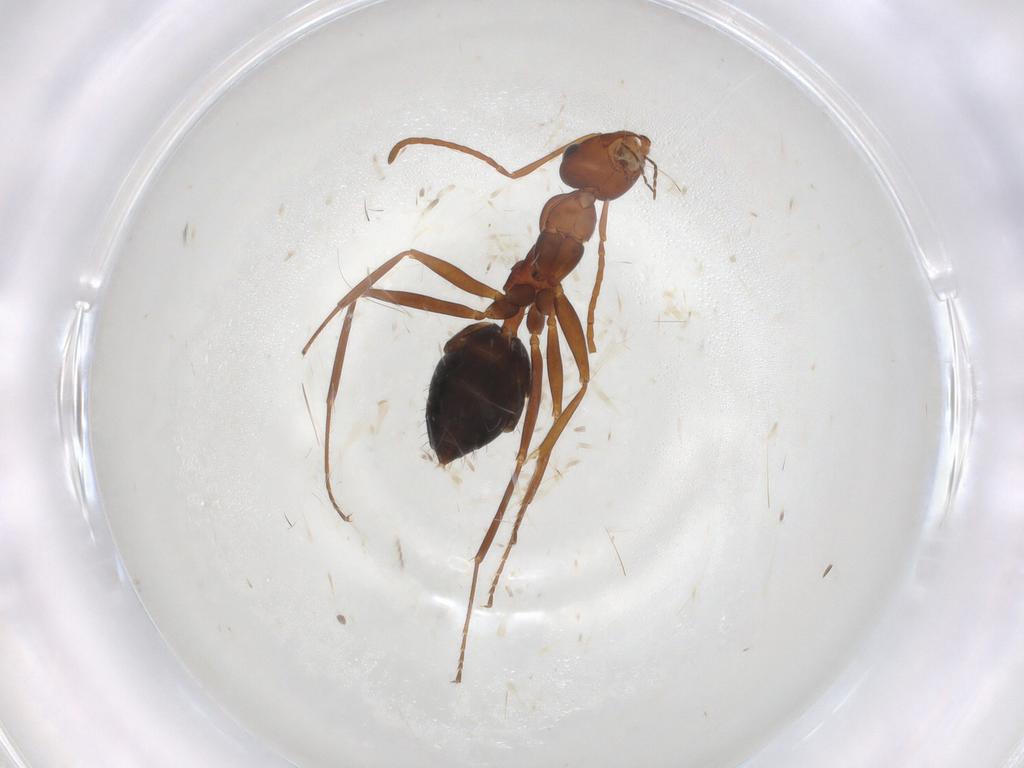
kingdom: Animalia
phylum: Arthropoda
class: Insecta
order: Hymenoptera
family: Formicidae
